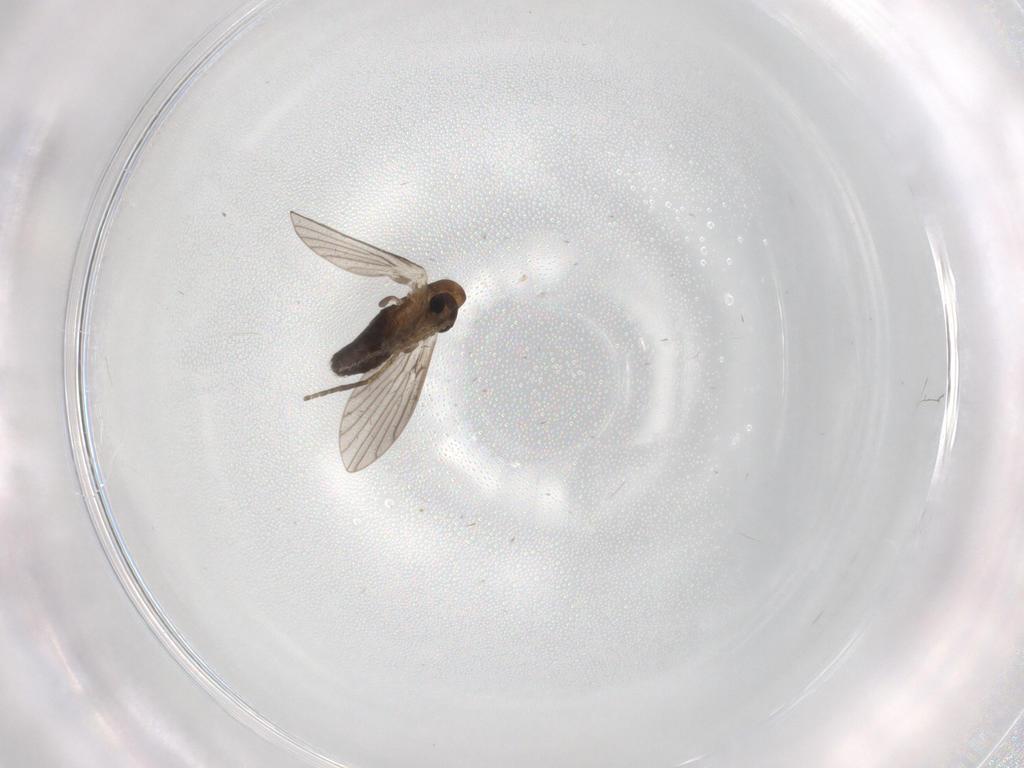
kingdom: Animalia
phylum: Arthropoda
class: Insecta
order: Diptera
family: Psychodidae
